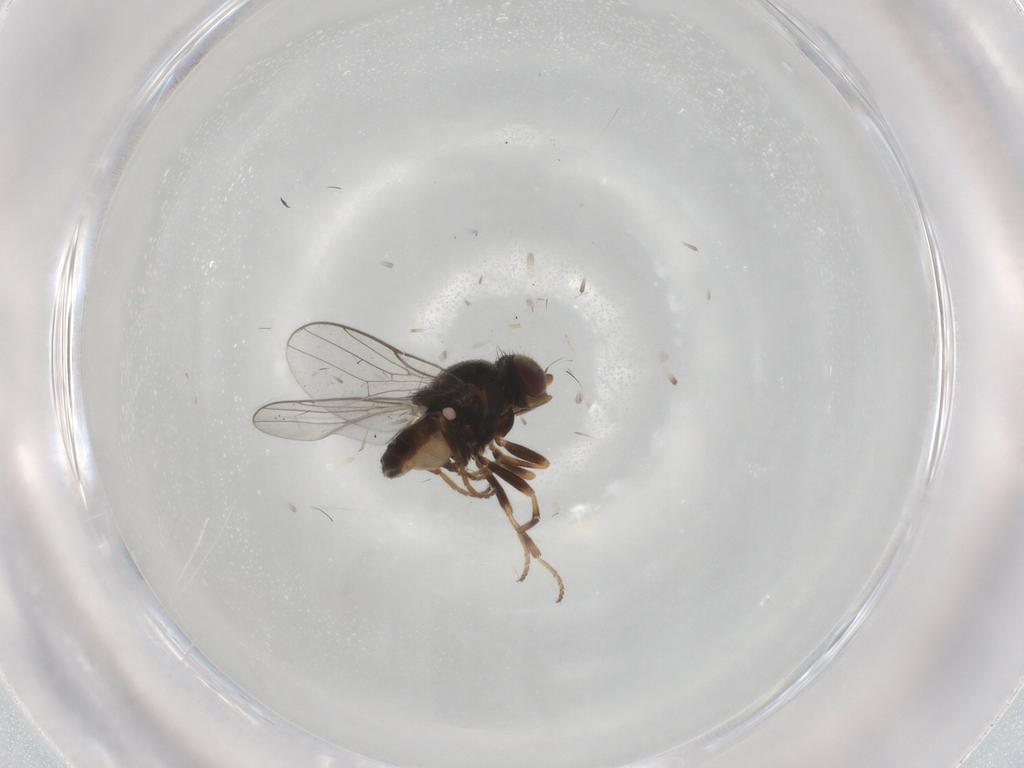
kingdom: Animalia
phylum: Arthropoda
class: Insecta
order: Diptera
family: Chloropidae
